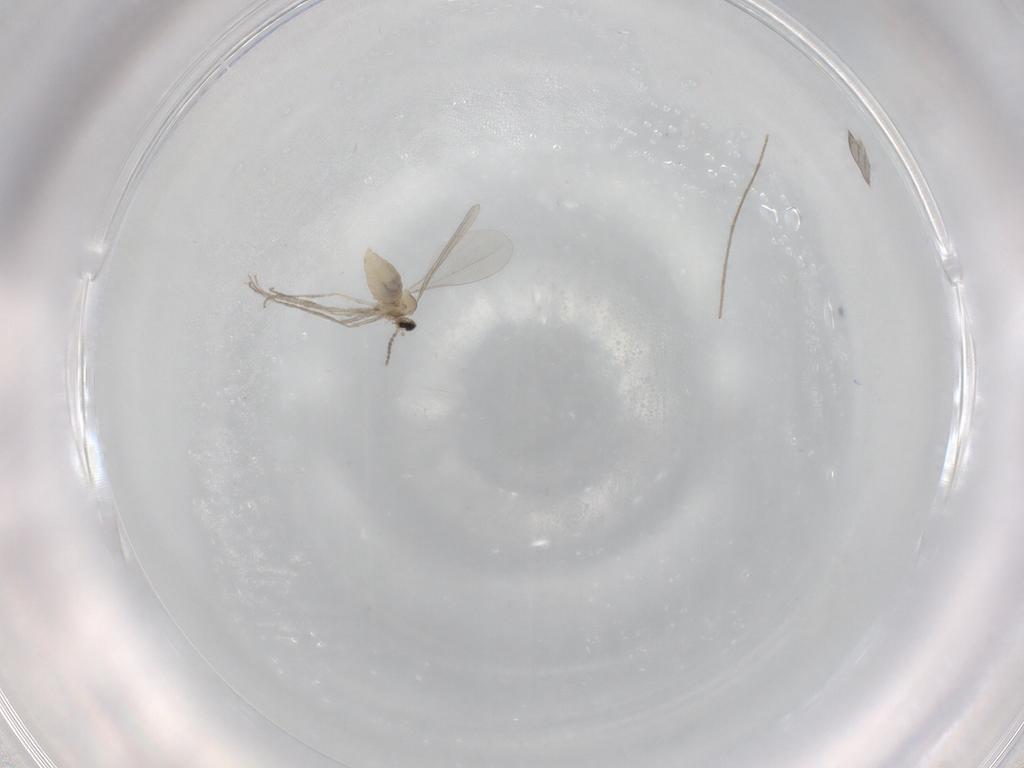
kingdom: Animalia
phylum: Arthropoda
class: Insecta
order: Diptera
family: Chironomidae
